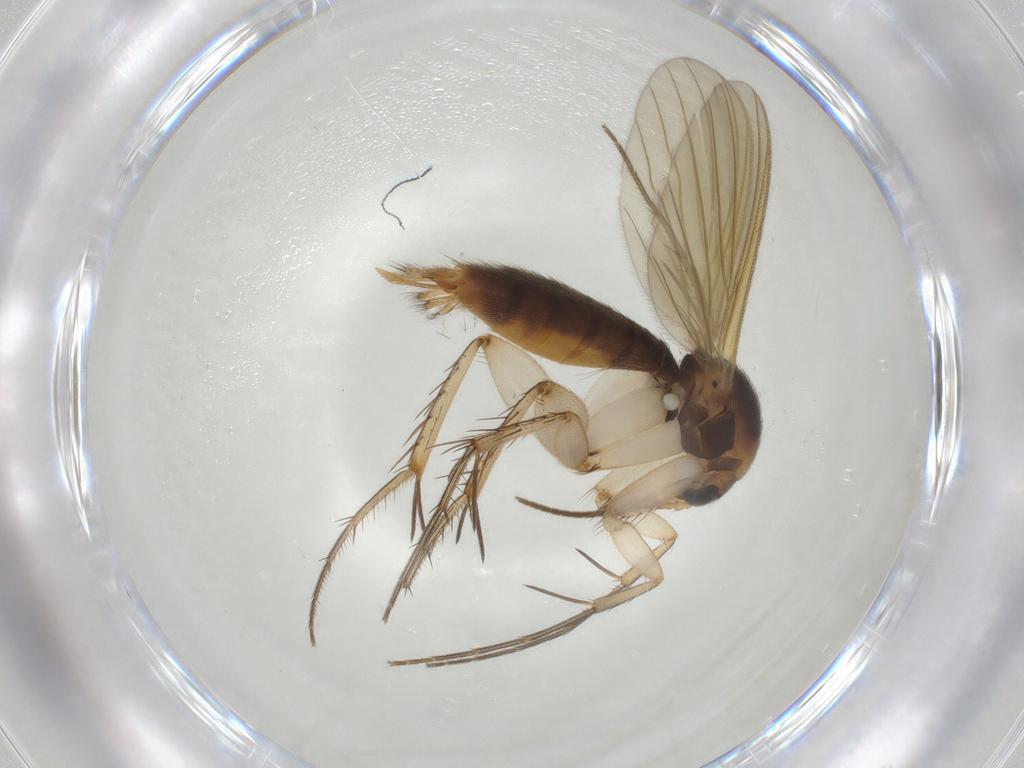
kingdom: Animalia
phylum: Arthropoda
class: Insecta
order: Diptera
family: Mycetophilidae
